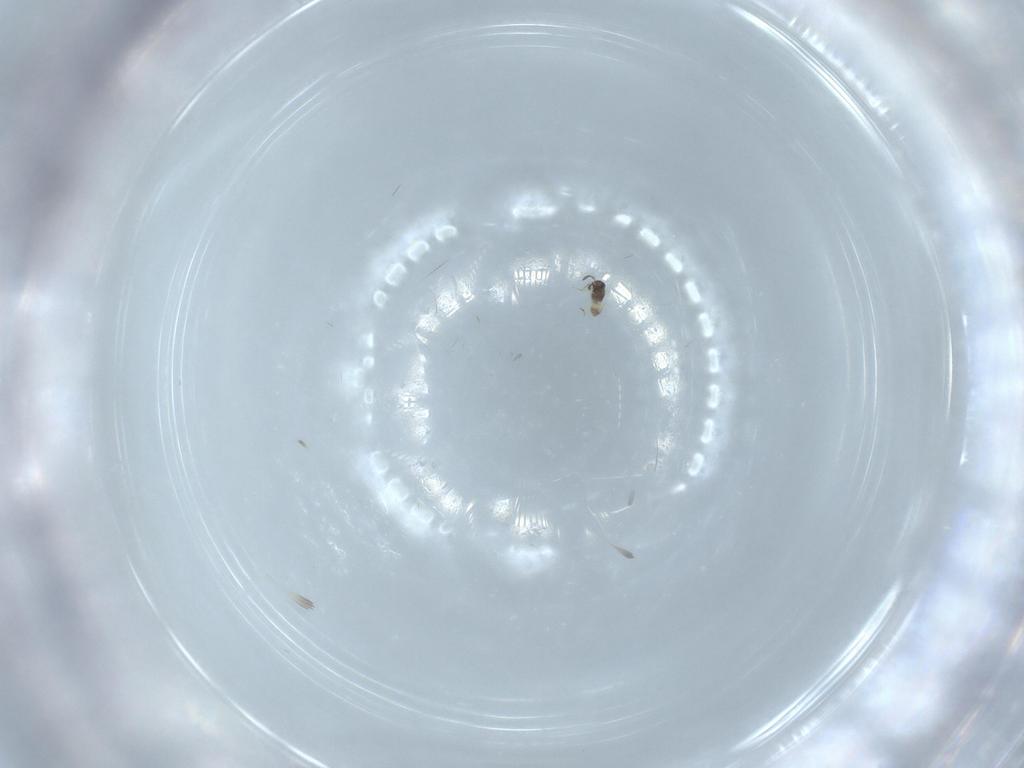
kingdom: Animalia
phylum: Arthropoda
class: Insecta
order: Hymenoptera
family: Mymaridae
